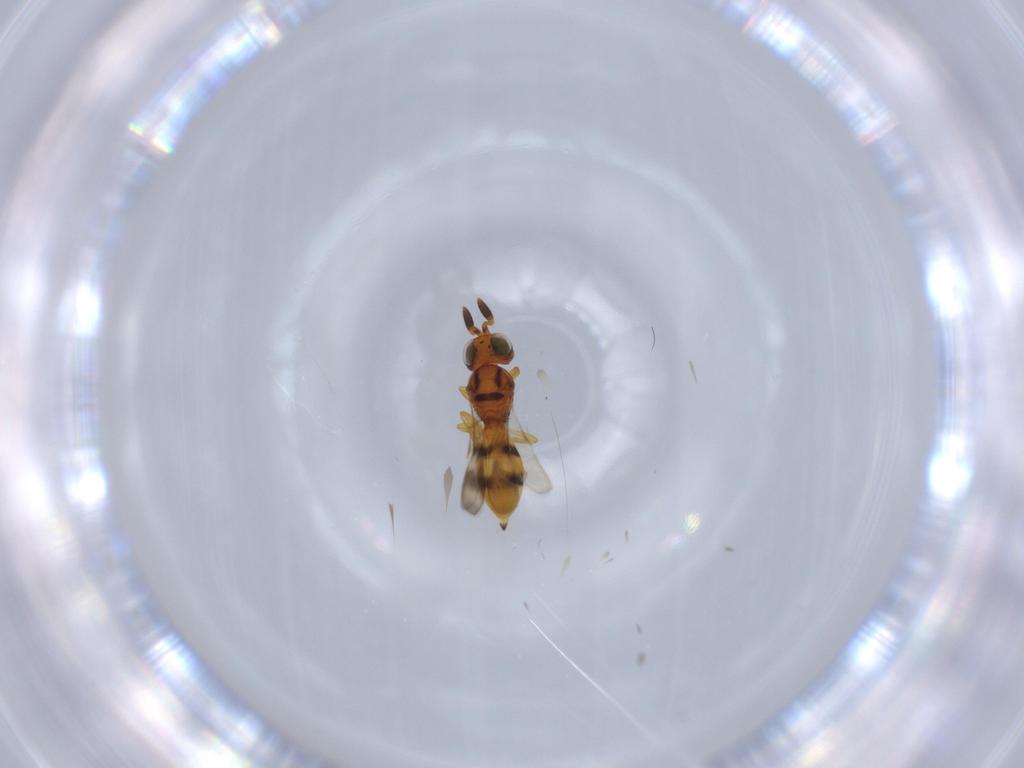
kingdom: Animalia
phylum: Arthropoda
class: Insecta
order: Hymenoptera
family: Scelionidae
